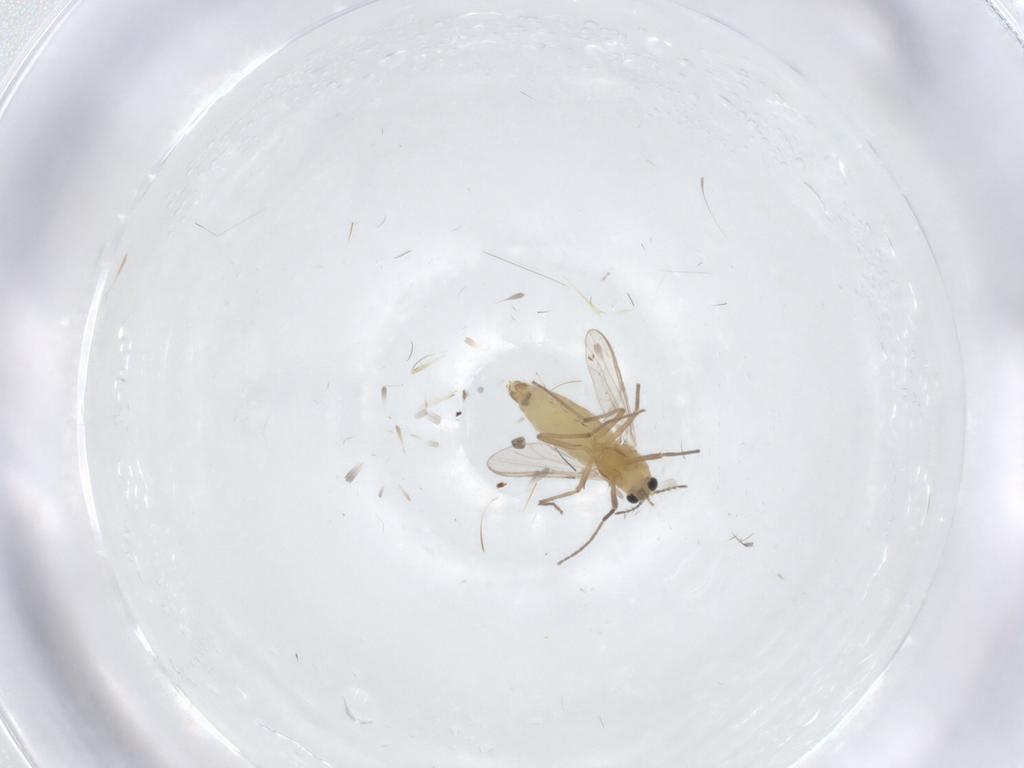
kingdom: Animalia
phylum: Arthropoda
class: Insecta
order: Diptera
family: Chironomidae
